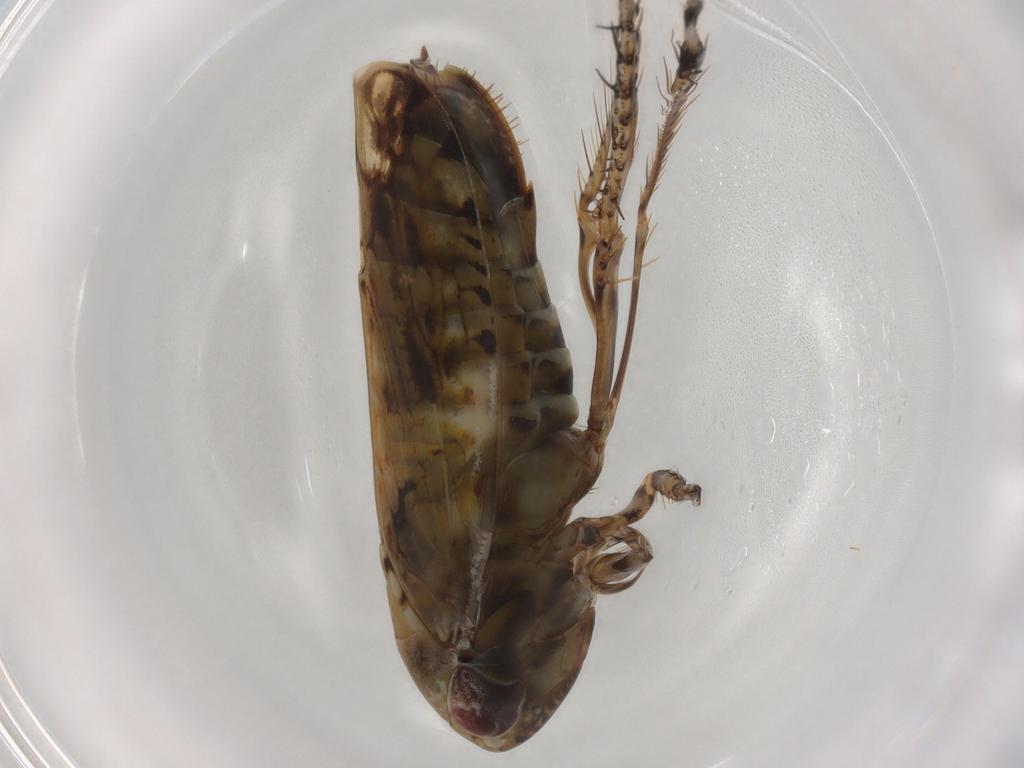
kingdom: Animalia
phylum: Arthropoda
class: Insecta
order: Hemiptera
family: Cicadellidae
